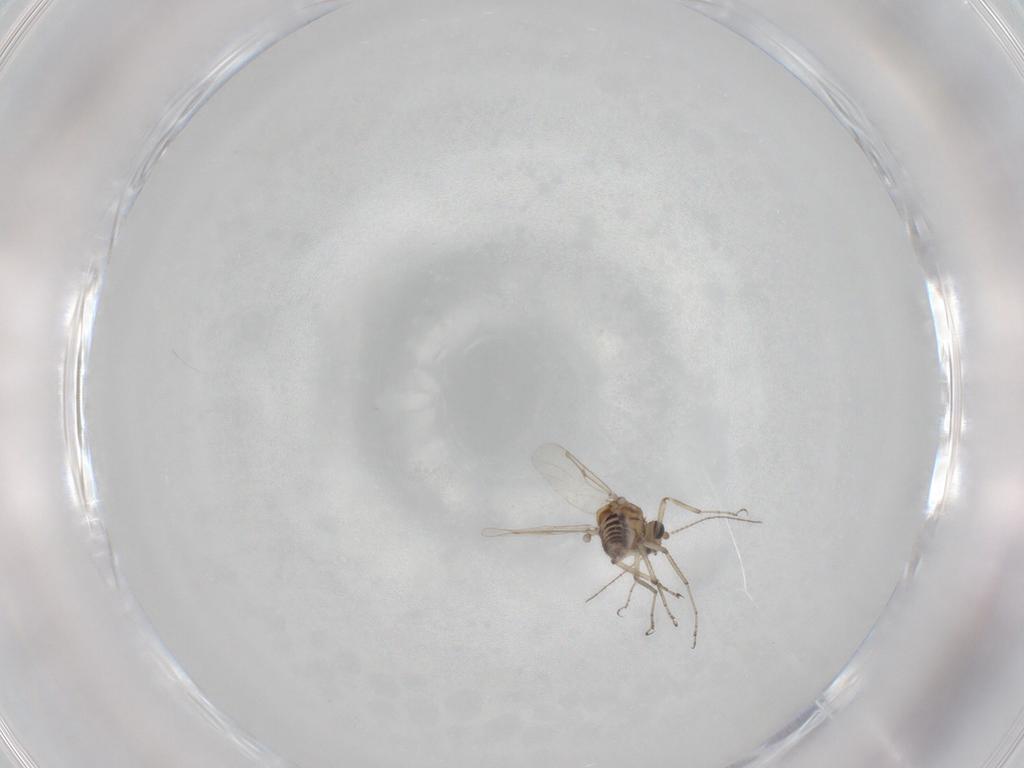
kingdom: Animalia
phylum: Arthropoda
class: Insecta
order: Diptera
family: Ceratopogonidae
